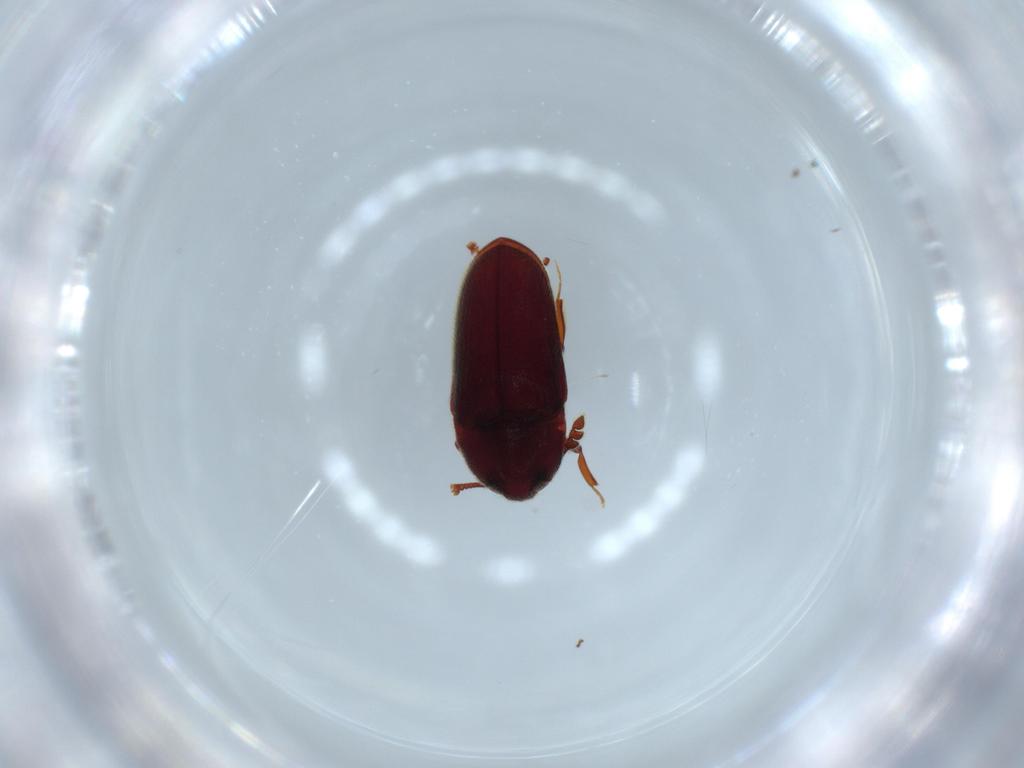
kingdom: Animalia
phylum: Arthropoda
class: Insecta
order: Coleoptera
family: Throscidae
